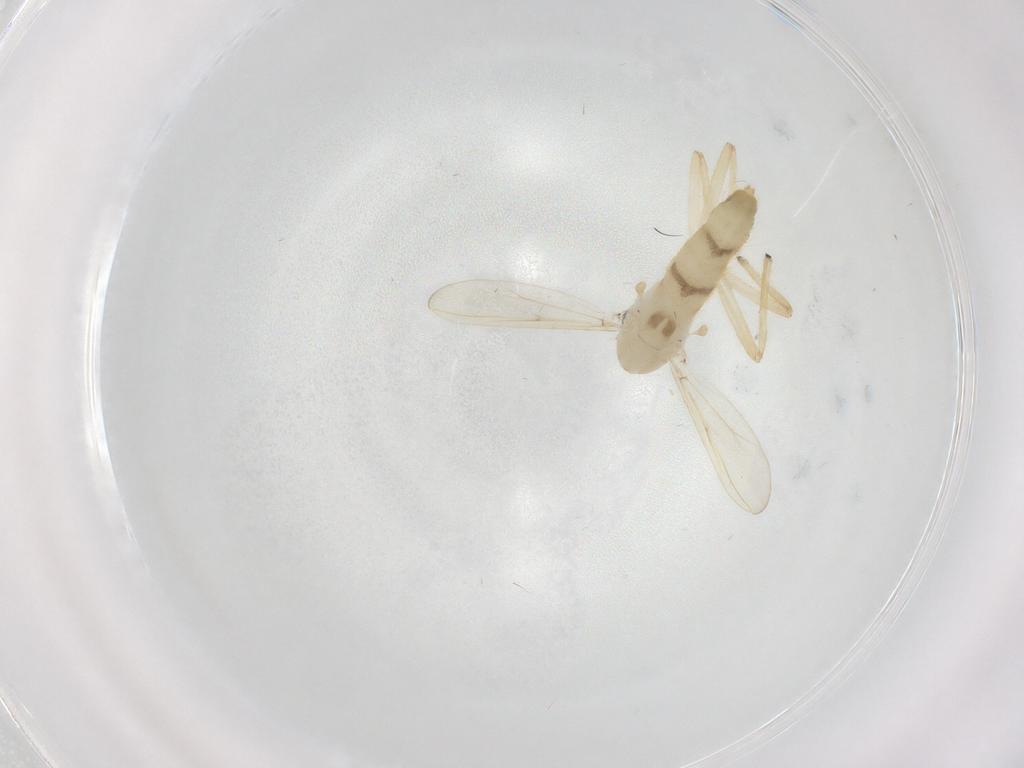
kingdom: Animalia
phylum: Arthropoda
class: Insecta
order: Diptera
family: Chironomidae
